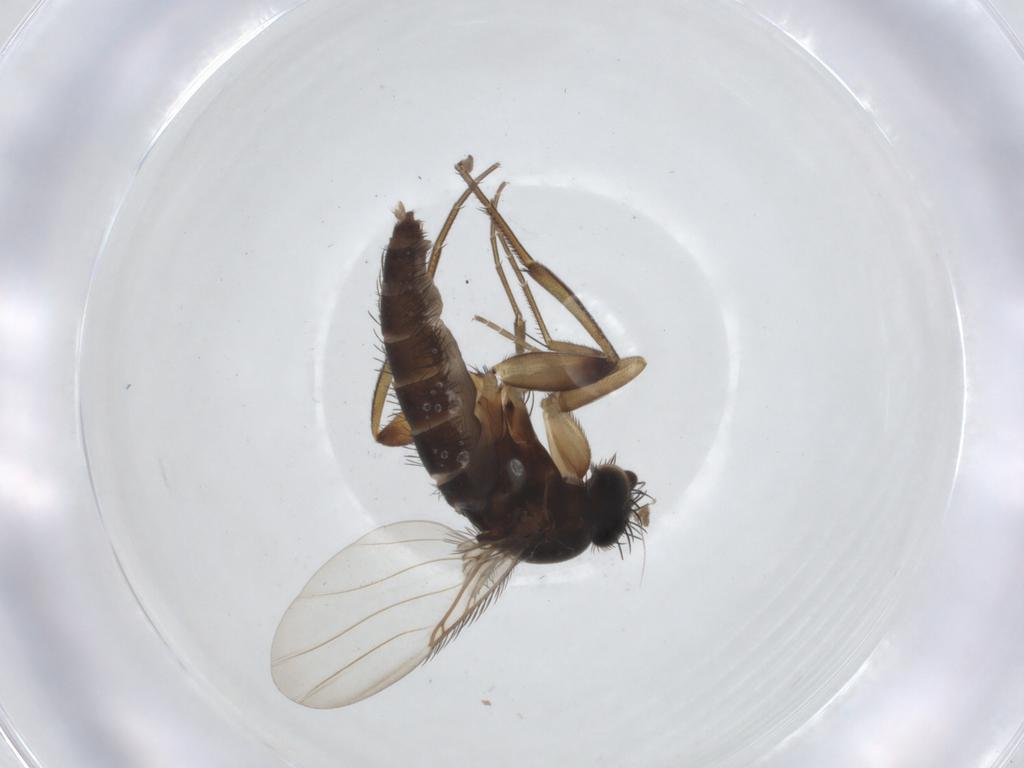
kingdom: Animalia
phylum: Arthropoda
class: Insecta
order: Diptera
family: Phoridae
